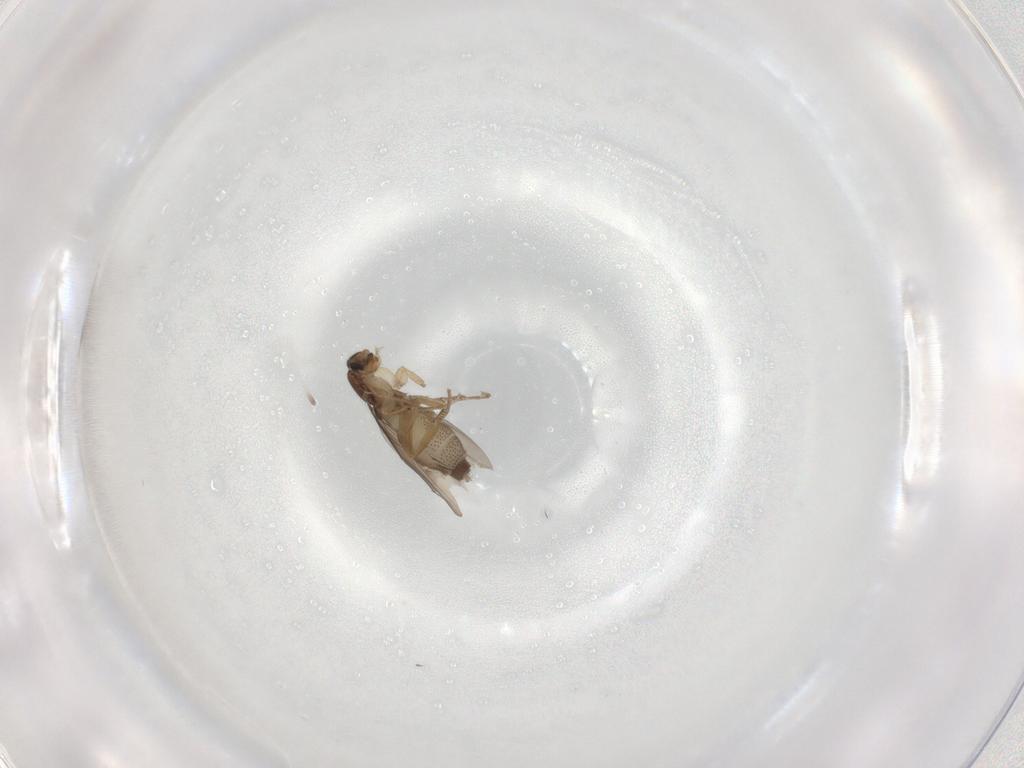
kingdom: Animalia
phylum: Arthropoda
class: Insecta
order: Diptera
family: Phoridae
